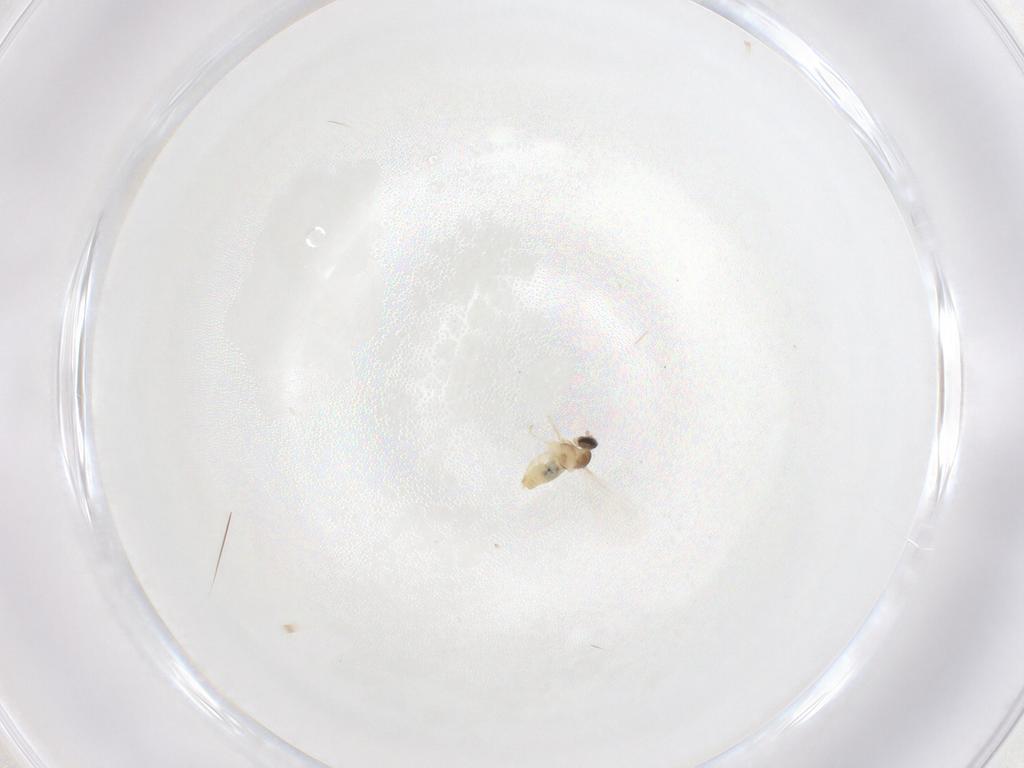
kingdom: Animalia
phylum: Arthropoda
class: Insecta
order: Diptera
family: Cecidomyiidae
